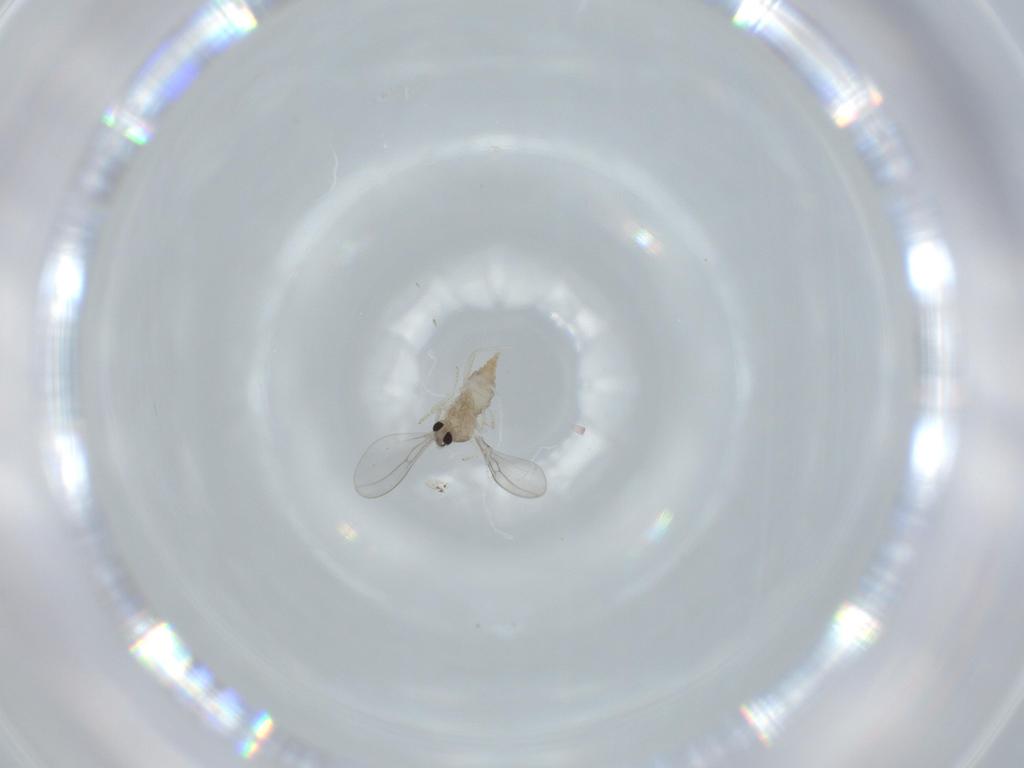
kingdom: Animalia
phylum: Arthropoda
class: Insecta
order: Diptera
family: Cecidomyiidae
